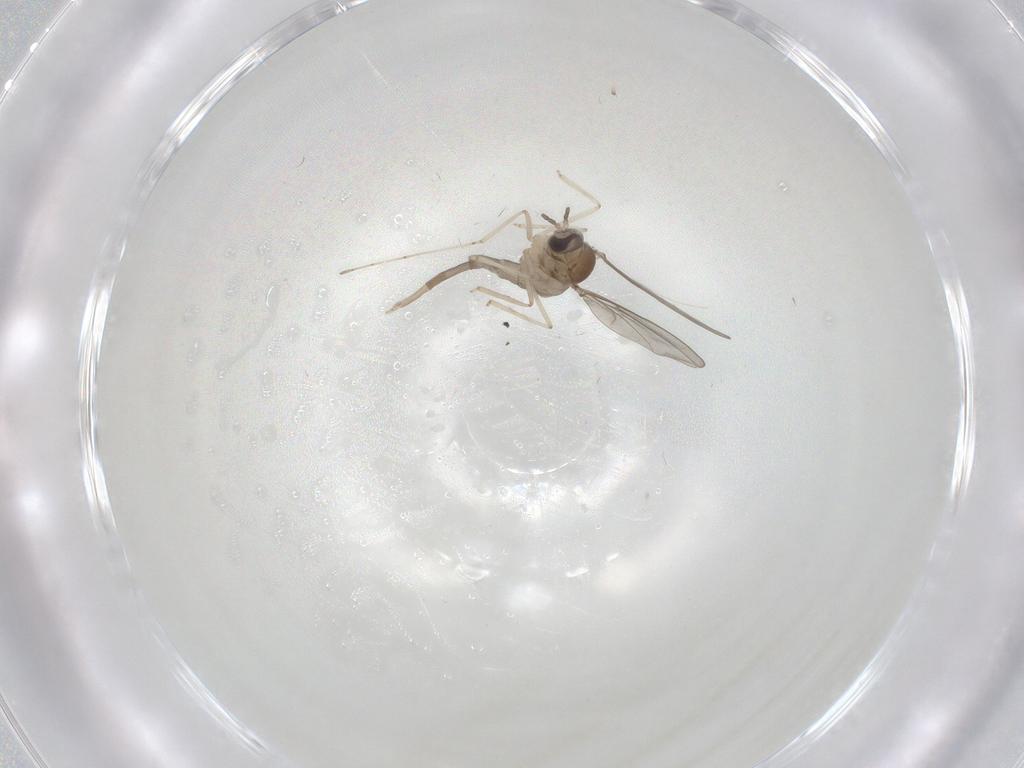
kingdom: Animalia
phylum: Arthropoda
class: Insecta
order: Diptera
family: Cecidomyiidae
